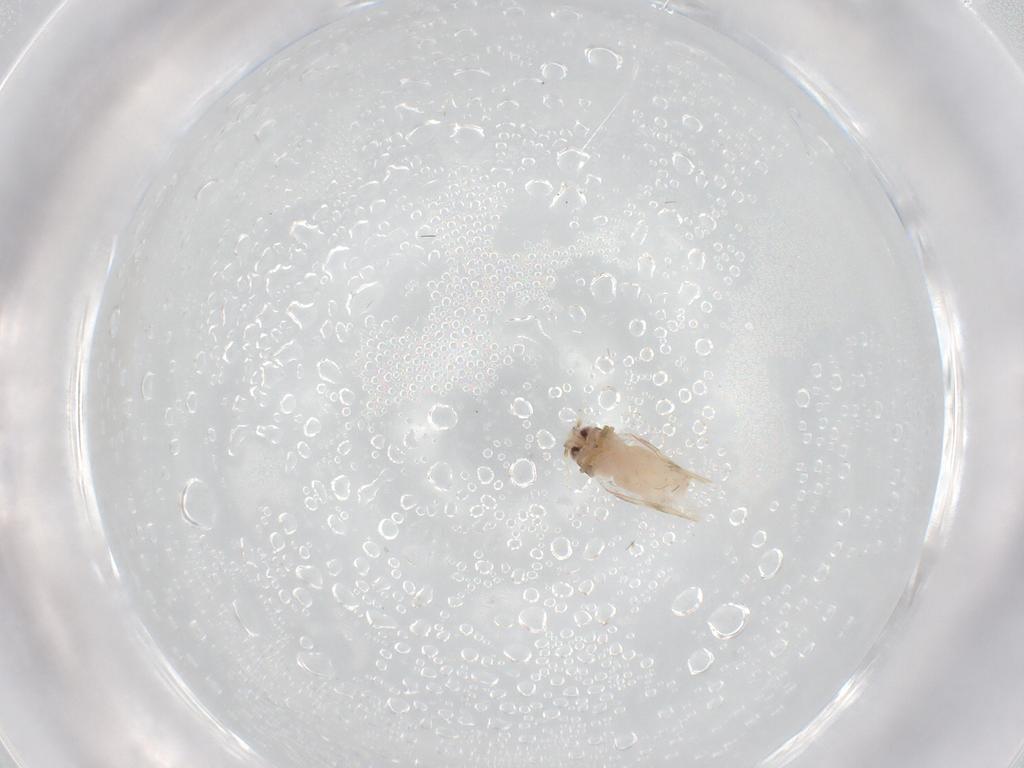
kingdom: Animalia
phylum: Arthropoda
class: Insecta
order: Hemiptera
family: Aleyrodidae
